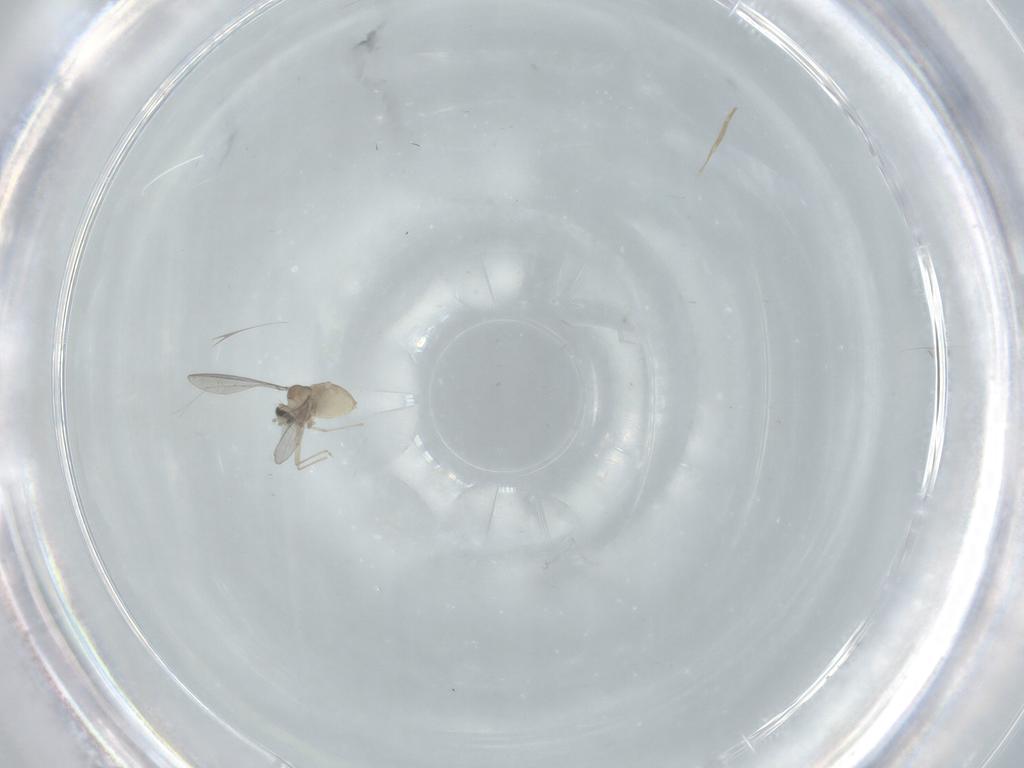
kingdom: Animalia
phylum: Arthropoda
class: Insecta
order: Diptera
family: Cecidomyiidae
